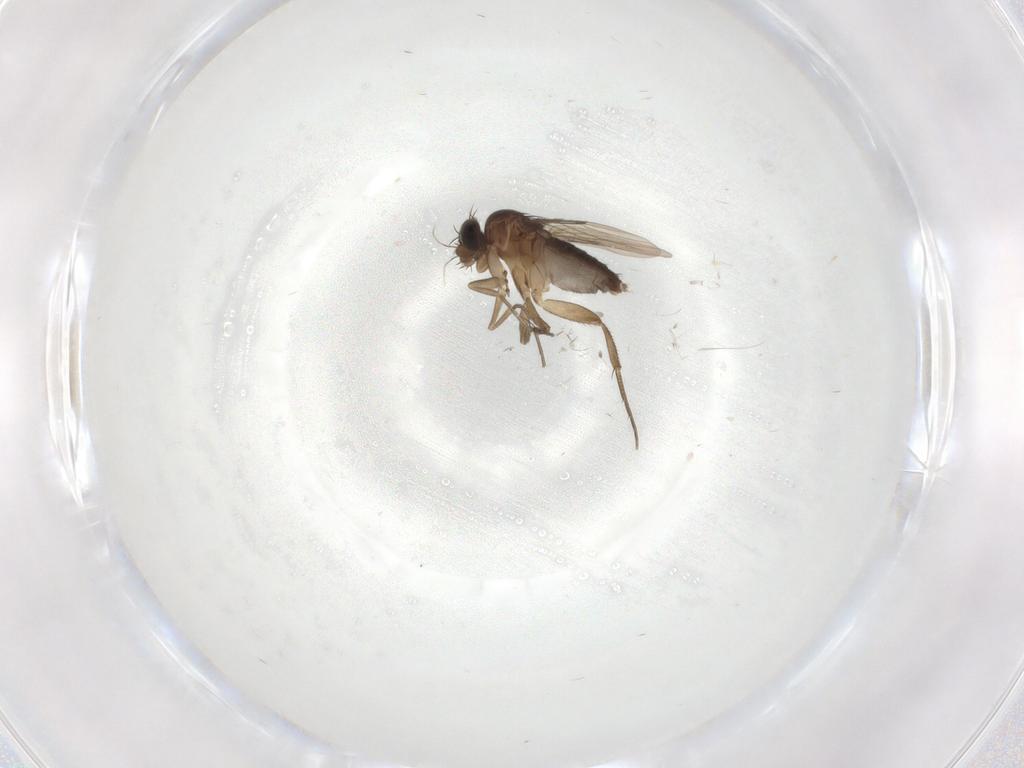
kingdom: Animalia
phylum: Arthropoda
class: Insecta
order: Diptera
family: Phoridae
